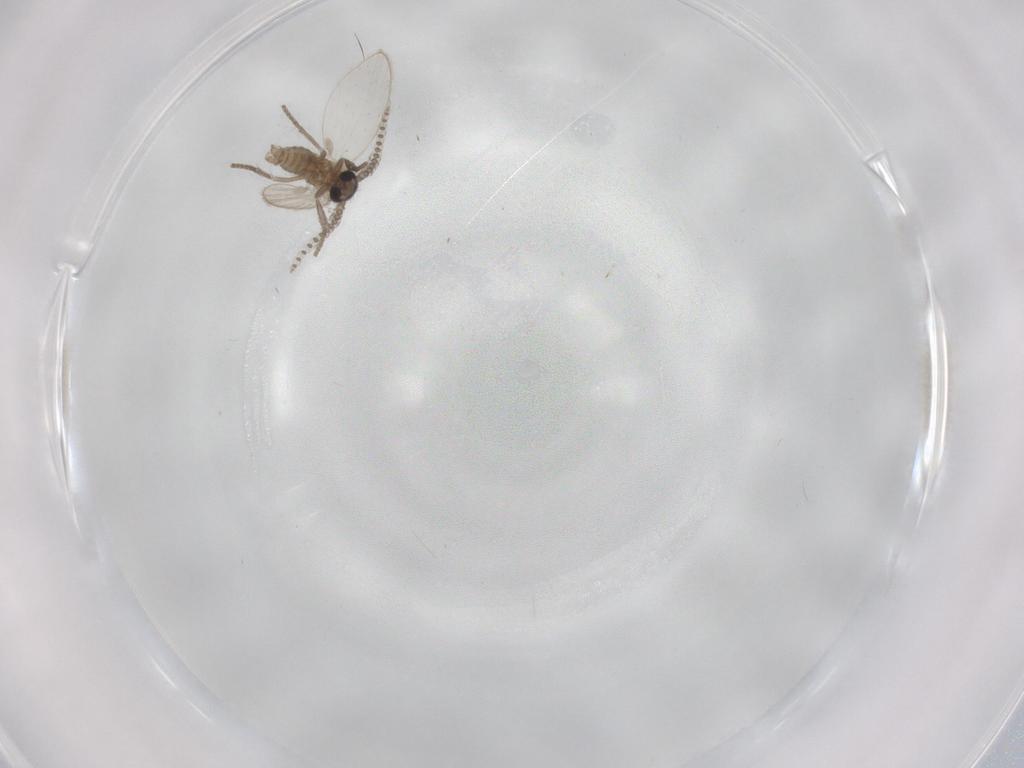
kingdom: Animalia
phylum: Arthropoda
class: Insecta
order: Diptera
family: Psychodidae
